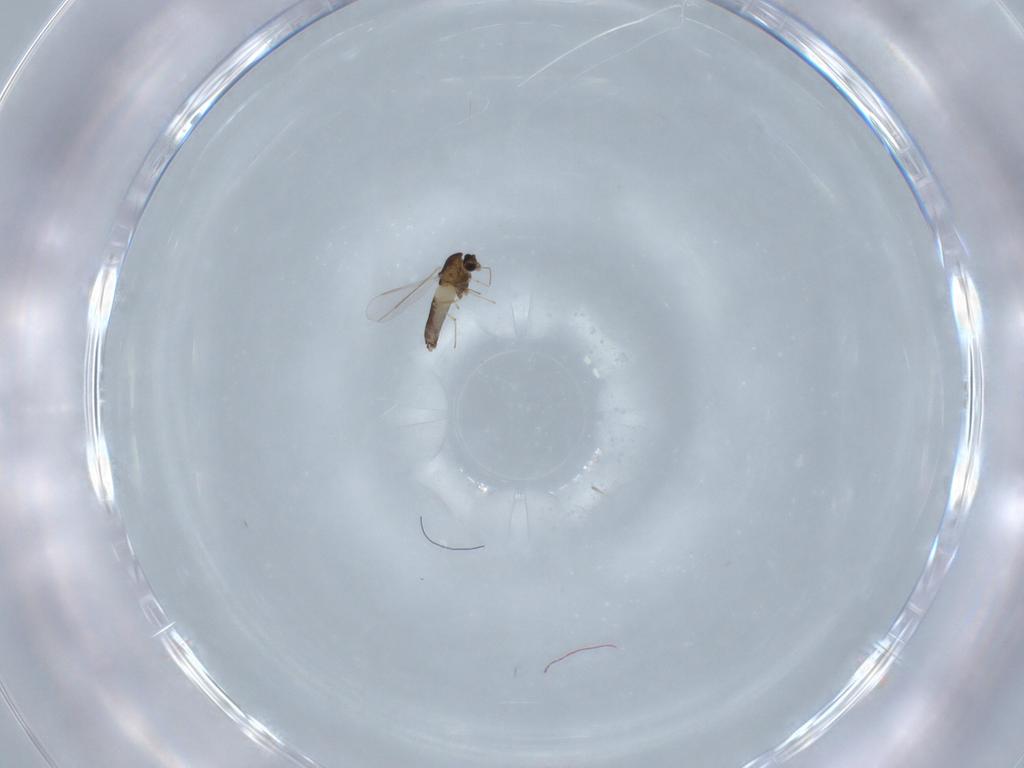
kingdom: Animalia
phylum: Arthropoda
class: Insecta
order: Diptera
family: Chironomidae
